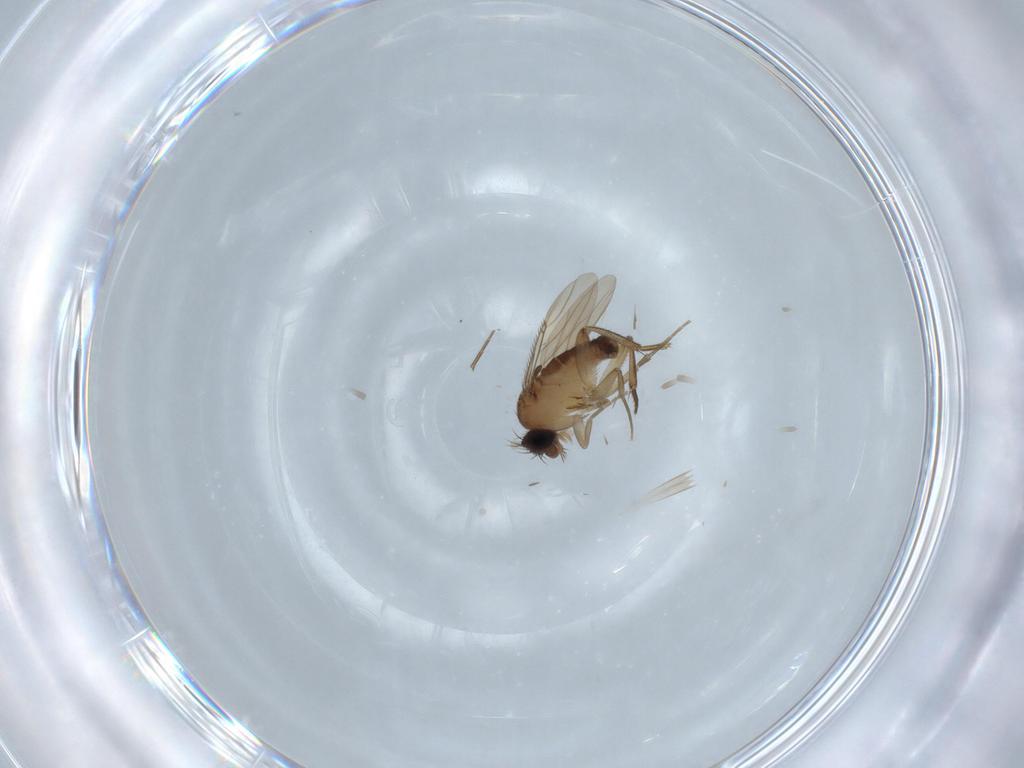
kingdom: Animalia
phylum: Arthropoda
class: Insecta
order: Diptera
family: Phoridae
